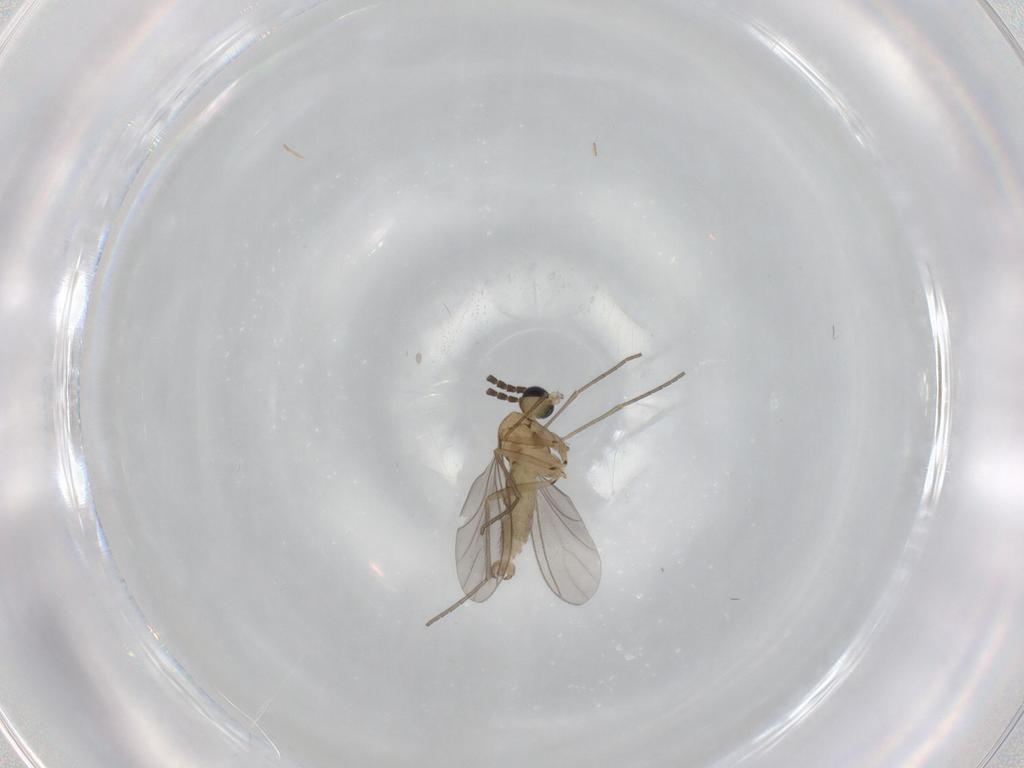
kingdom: Animalia
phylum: Arthropoda
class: Insecta
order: Diptera
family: Sciaridae
